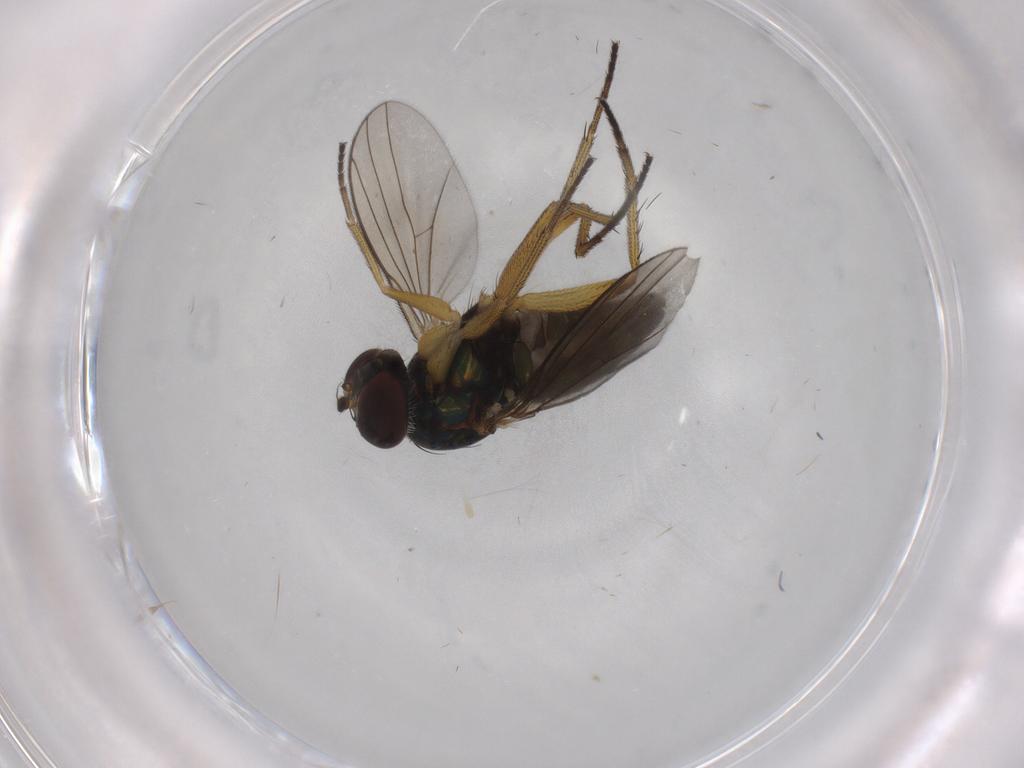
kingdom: Animalia
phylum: Arthropoda
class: Insecta
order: Diptera
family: Dolichopodidae
